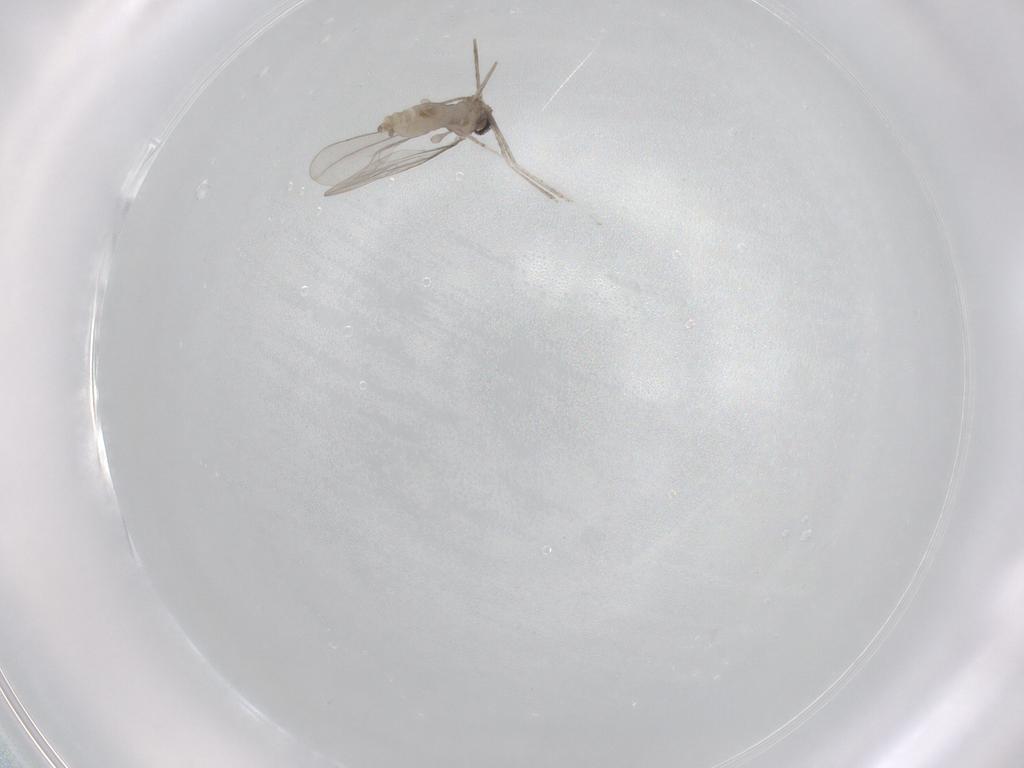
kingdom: Animalia
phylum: Arthropoda
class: Insecta
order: Diptera
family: Cecidomyiidae
